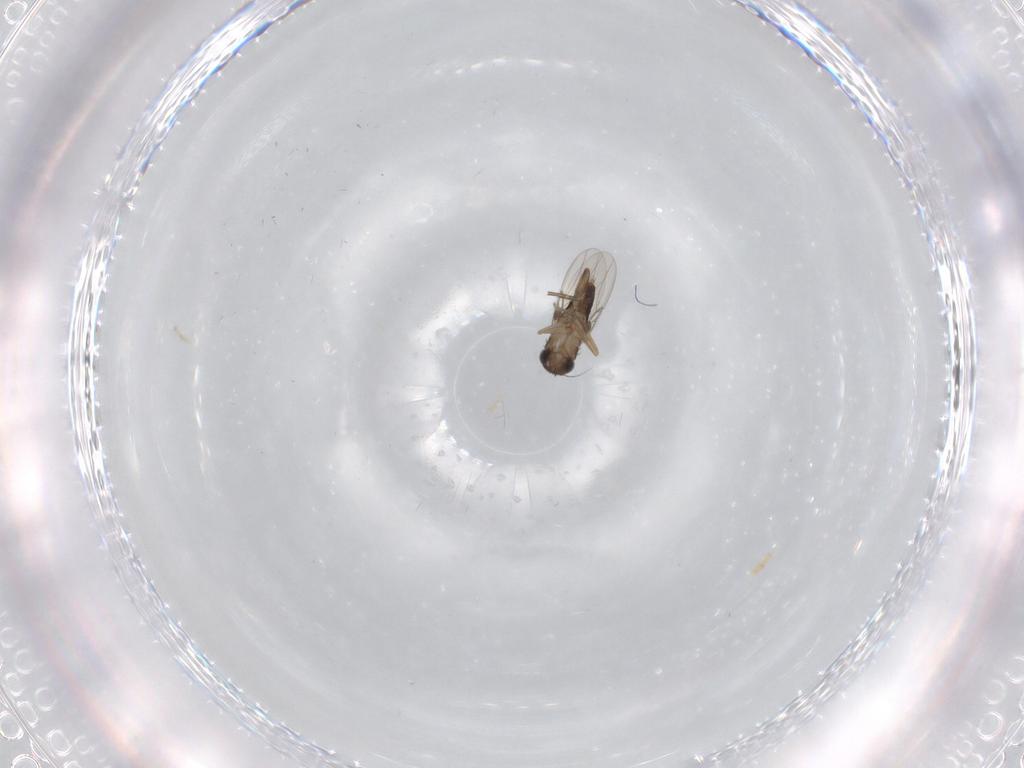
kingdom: Animalia
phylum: Arthropoda
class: Insecta
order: Diptera
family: Phoridae
